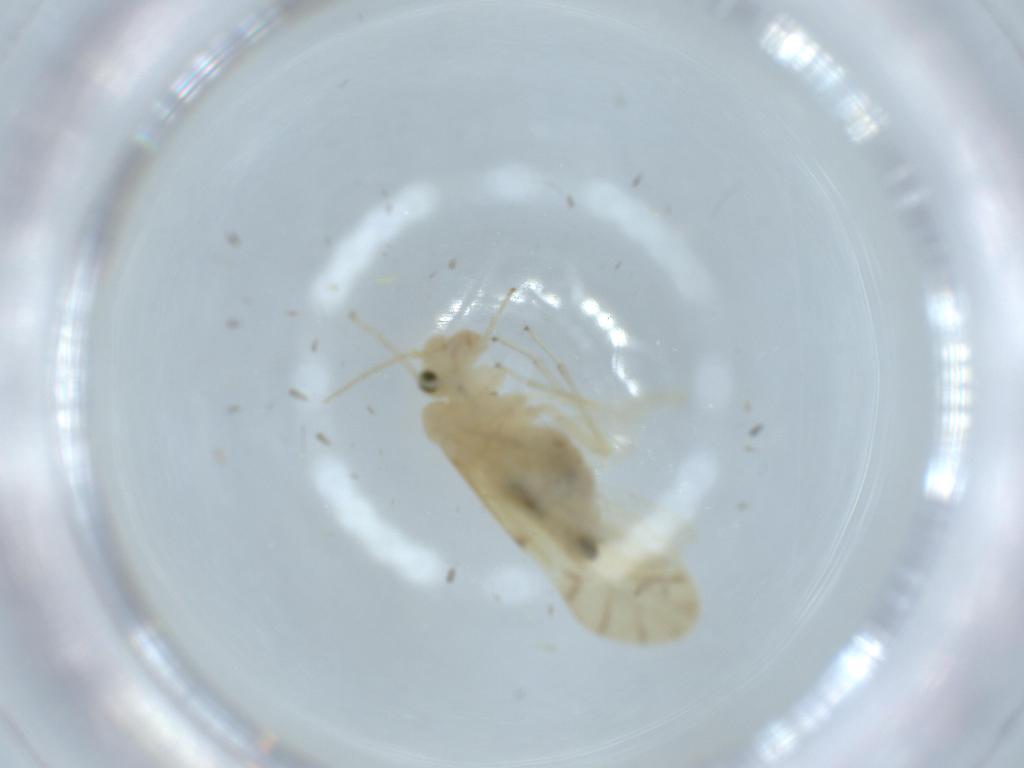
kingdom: Animalia
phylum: Arthropoda
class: Insecta
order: Psocodea
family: Caeciliusidae
